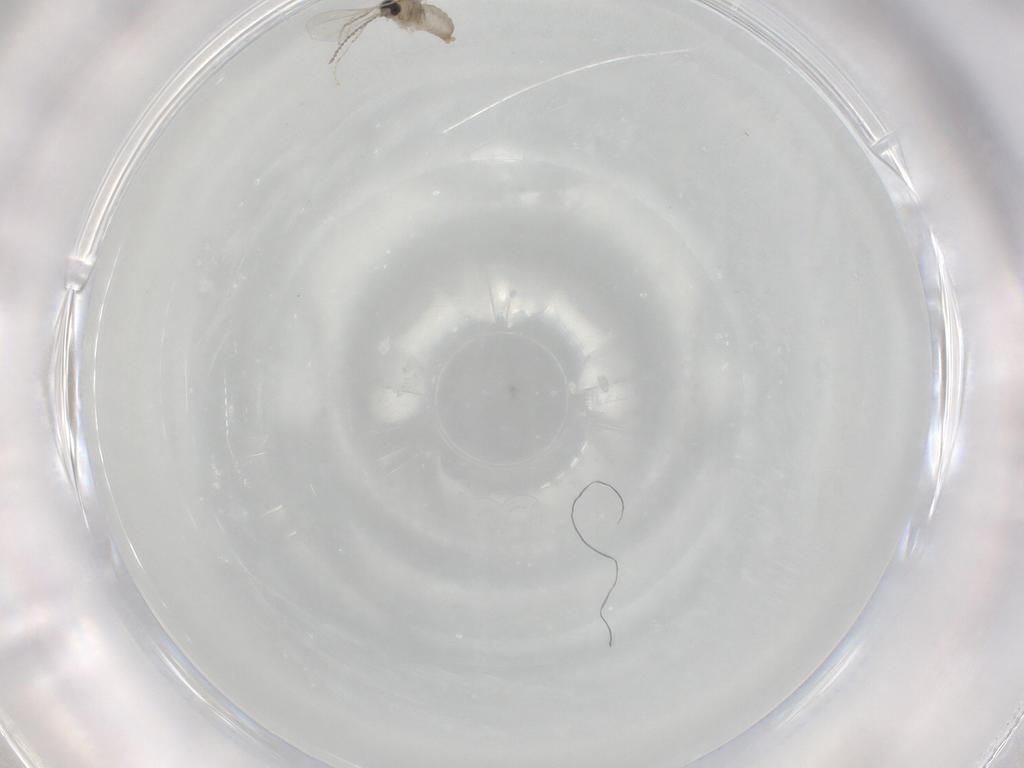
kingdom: Animalia
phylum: Arthropoda
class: Insecta
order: Diptera
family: Cecidomyiidae
